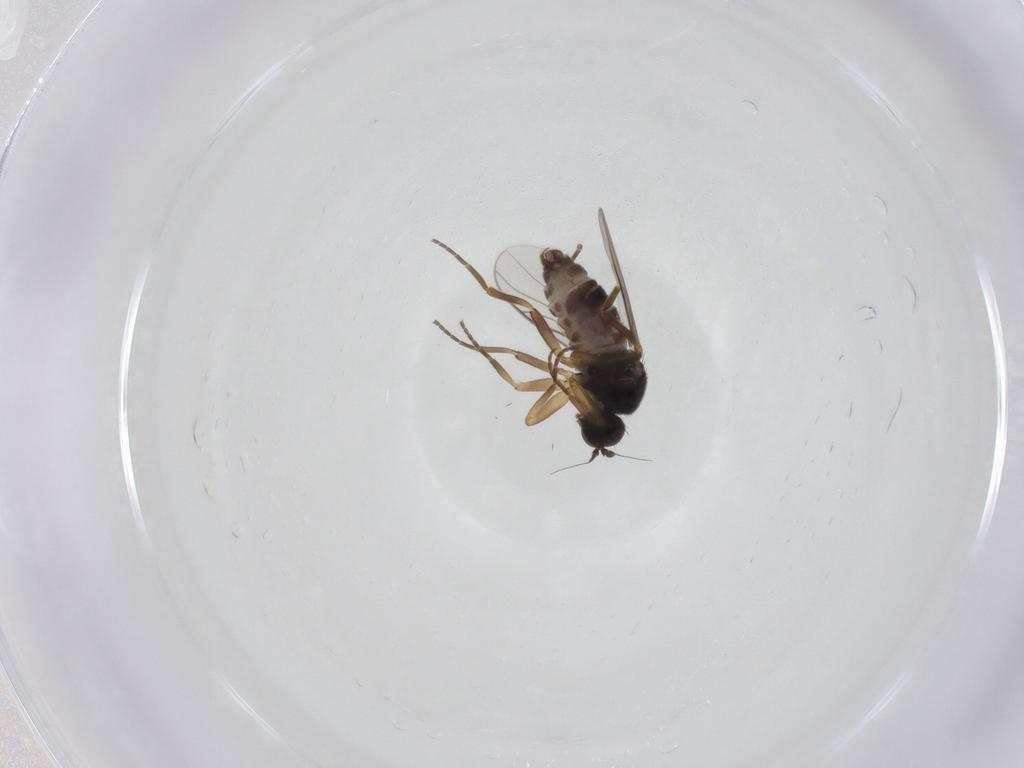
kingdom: Animalia
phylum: Arthropoda
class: Insecta
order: Diptera
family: Hybotidae
